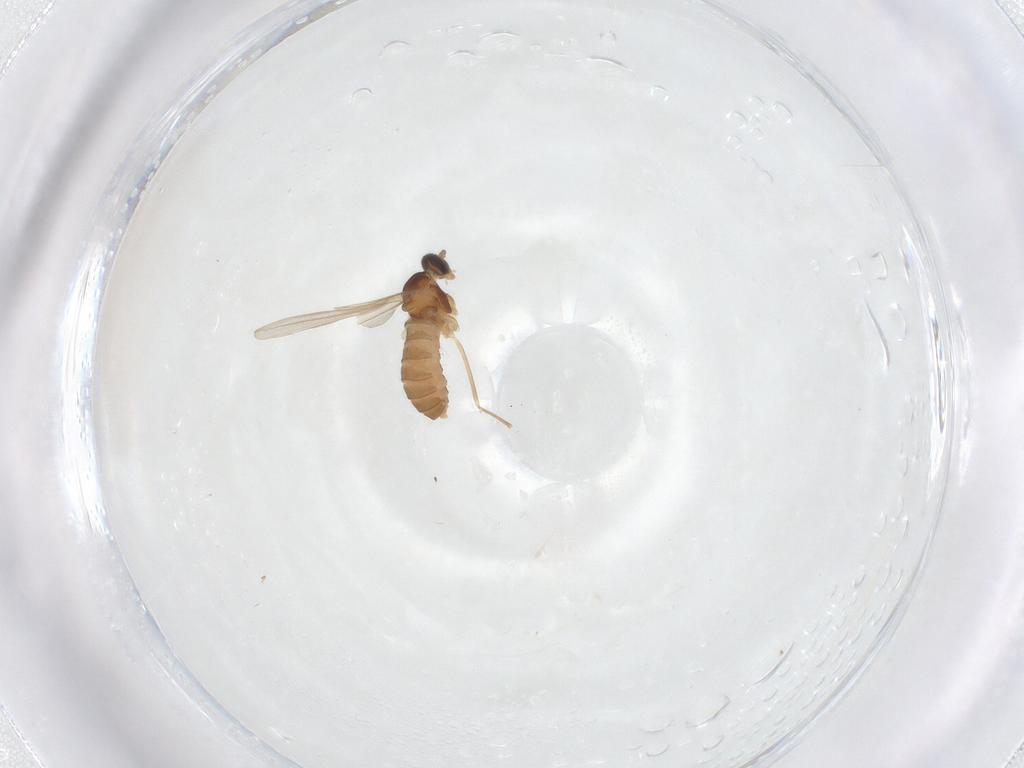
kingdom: Animalia
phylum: Arthropoda
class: Insecta
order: Diptera
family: Cecidomyiidae
